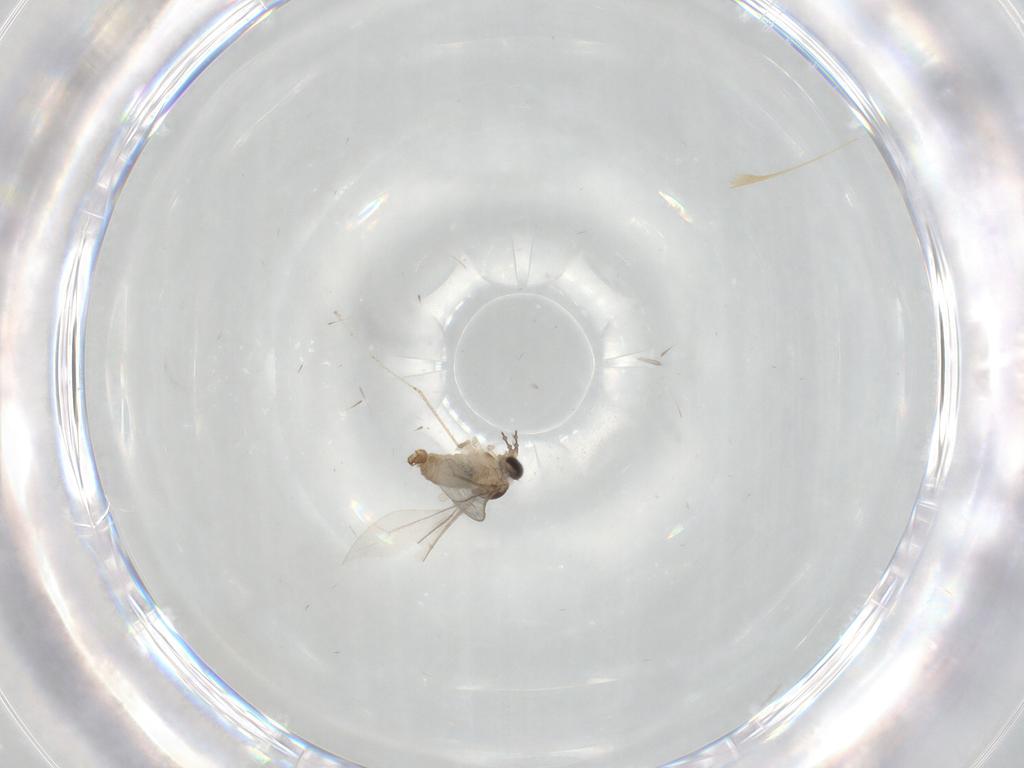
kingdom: Animalia
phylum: Arthropoda
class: Insecta
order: Diptera
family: Cecidomyiidae
